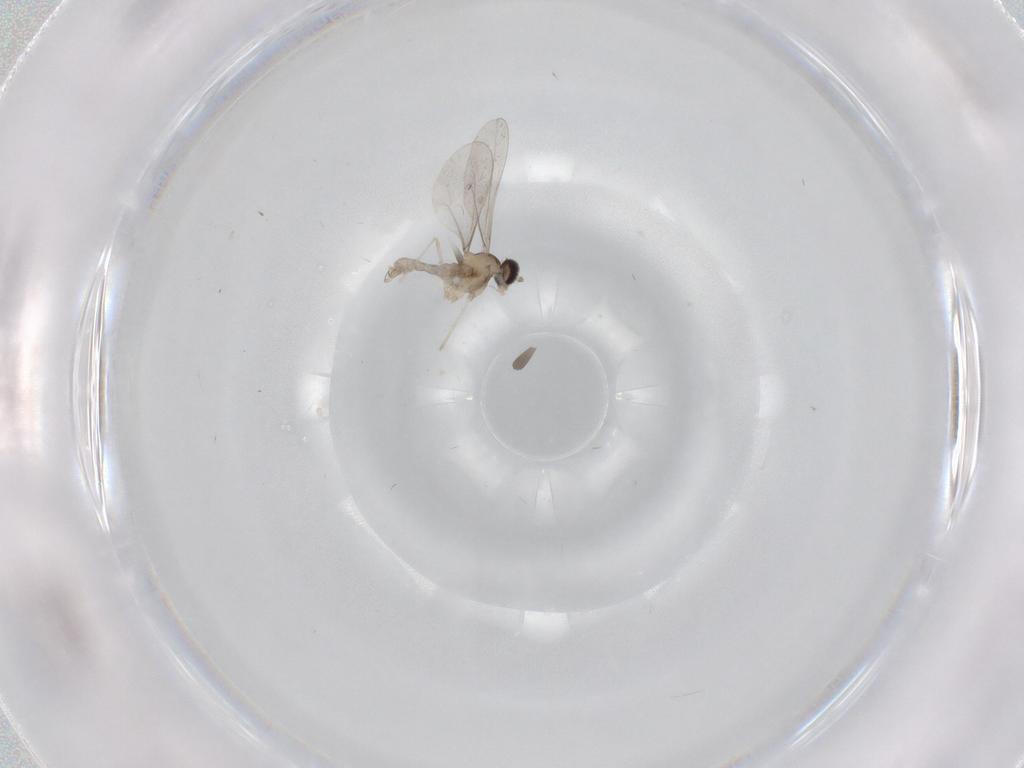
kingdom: Animalia
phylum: Arthropoda
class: Insecta
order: Diptera
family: Cecidomyiidae
